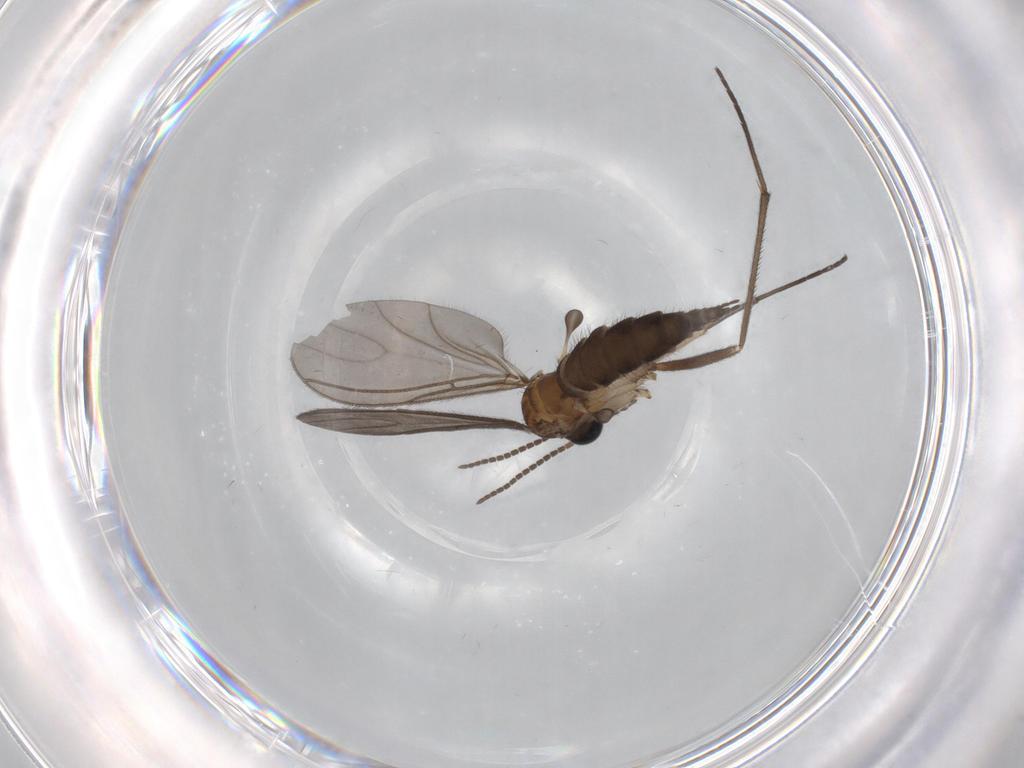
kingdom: Animalia
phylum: Arthropoda
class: Insecta
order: Diptera
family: Sciaridae
